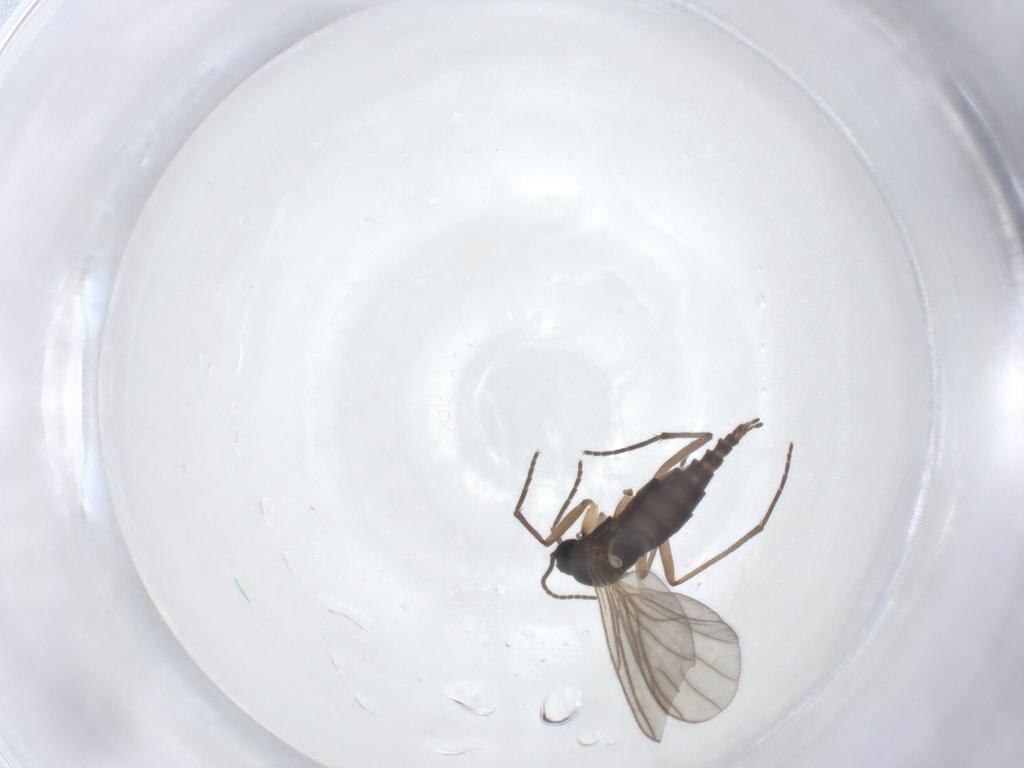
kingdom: Animalia
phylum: Arthropoda
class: Insecta
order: Diptera
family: Sciaridae
